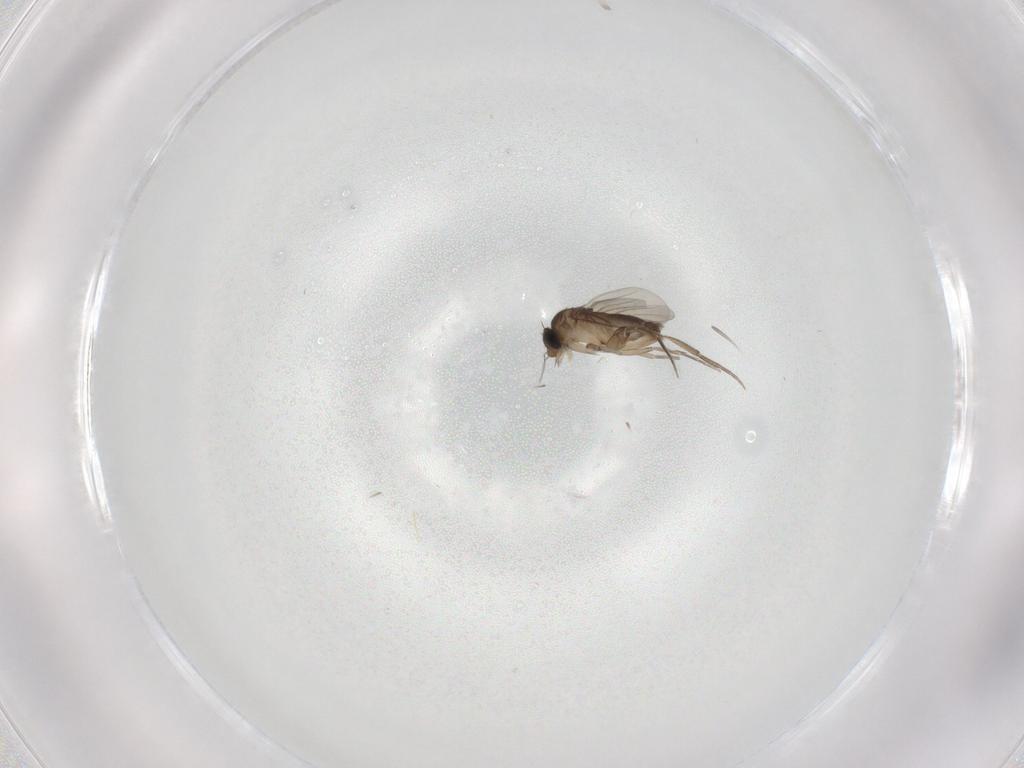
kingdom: Animalia
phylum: Arthropoda
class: Insecta
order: Diptera
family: Phoridae
